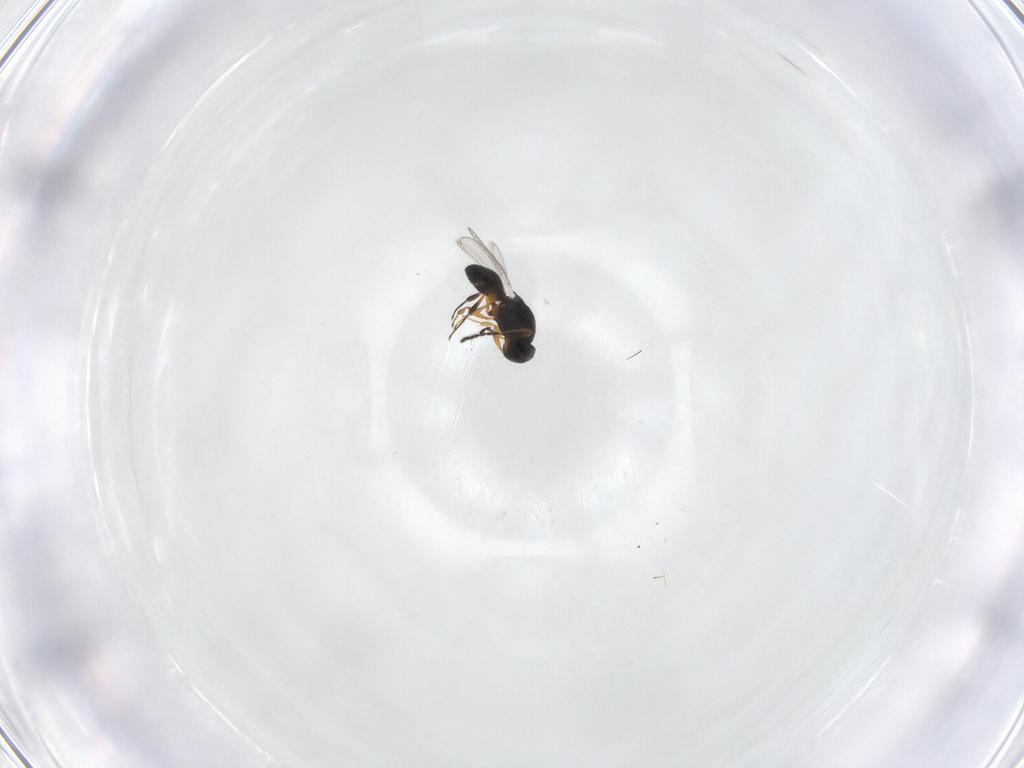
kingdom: Animalia
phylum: Arthropoda
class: Insecta
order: Hymenoptera
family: Platygastridae
